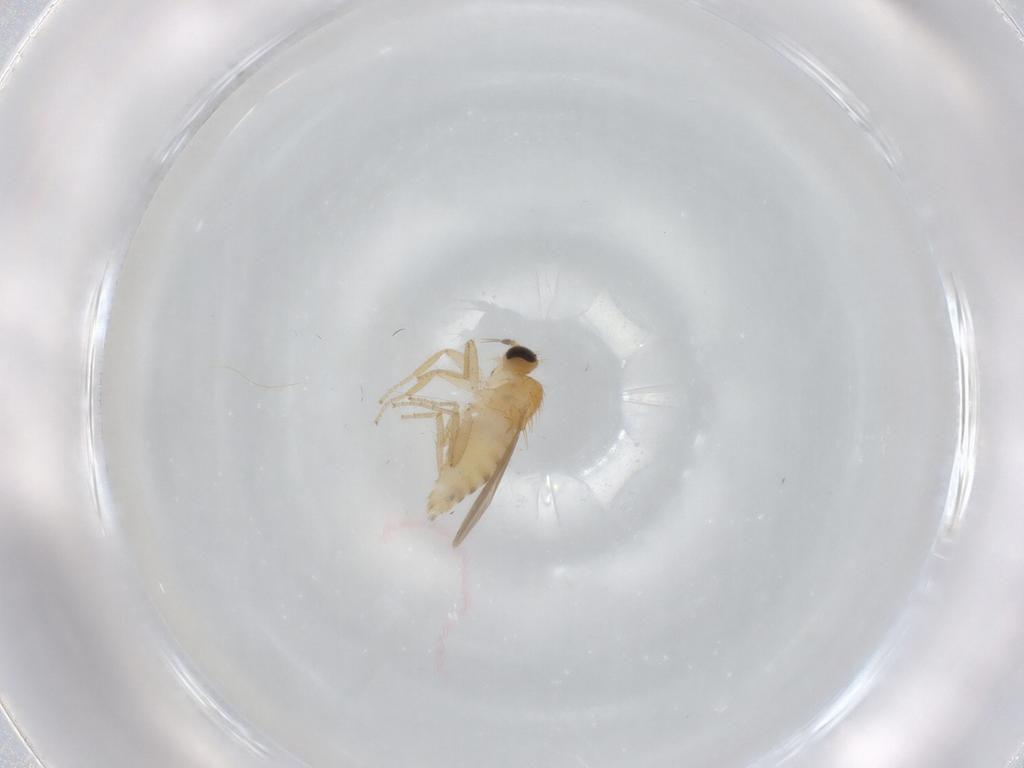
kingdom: Animalia
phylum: Arthropoda
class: Insecta
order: Diptera
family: Hybotidae
